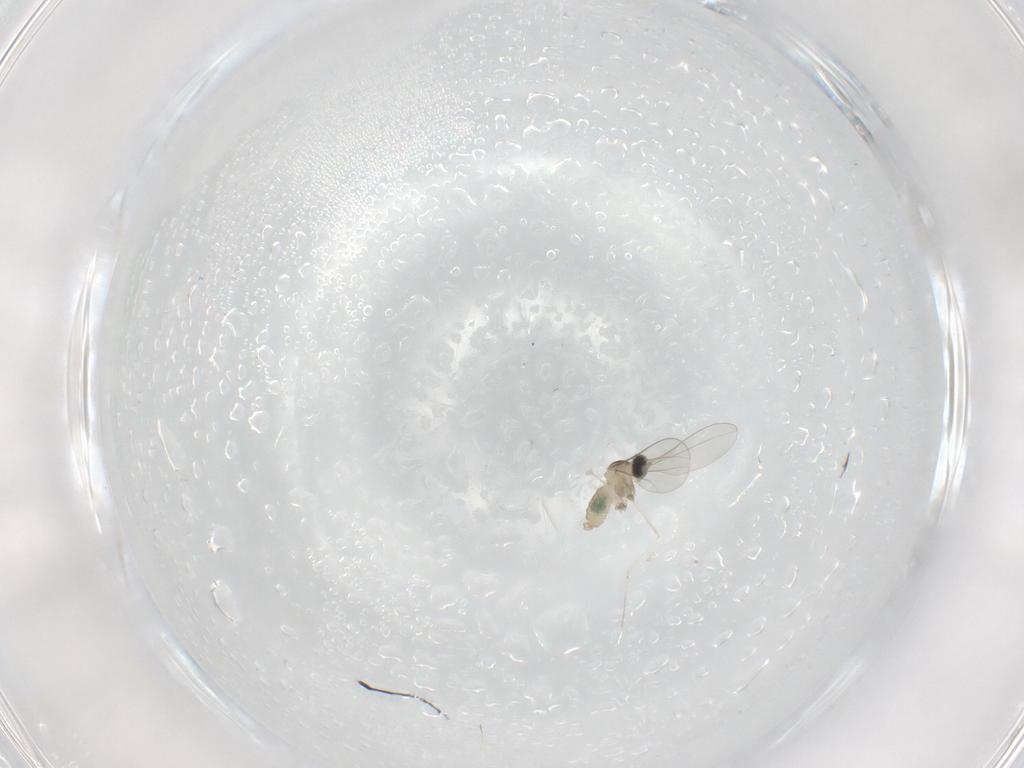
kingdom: Animalia
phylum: Arthropoda
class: Insecta
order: Diptera
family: Cecidomyiidae
